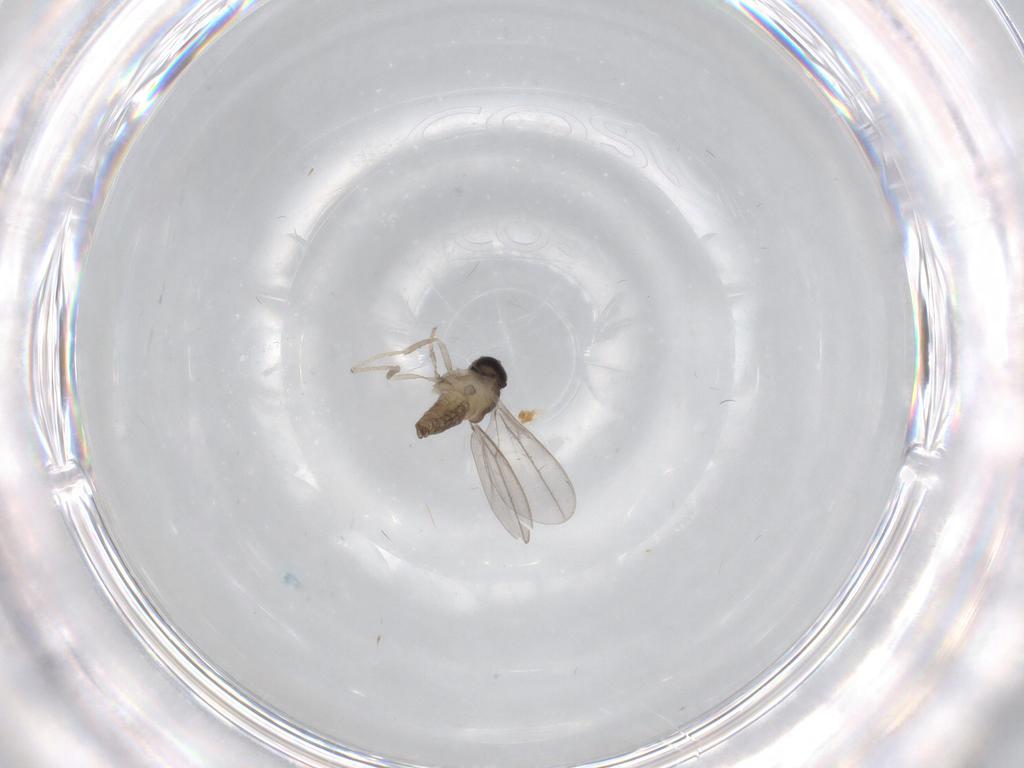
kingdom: Animalia
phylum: Arthropoda
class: Insecta
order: Diptera
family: Cecidomyiidae
